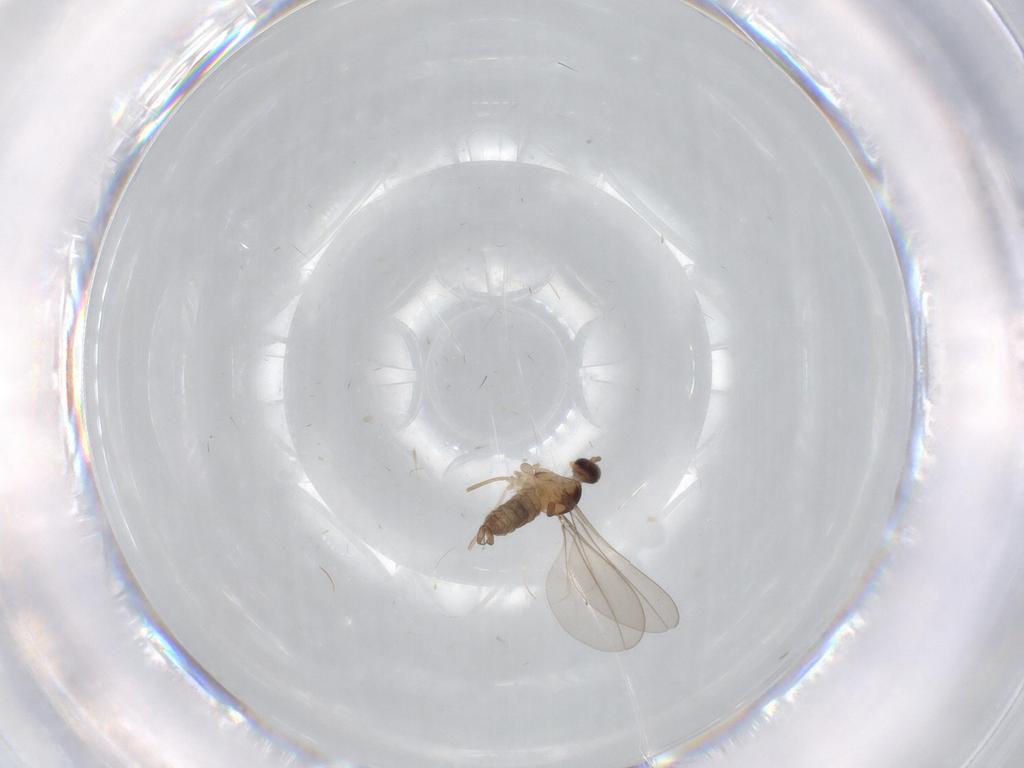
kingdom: Animalia
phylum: Arthropoda
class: Insecta
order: Diptera
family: Cecidomyiidae
